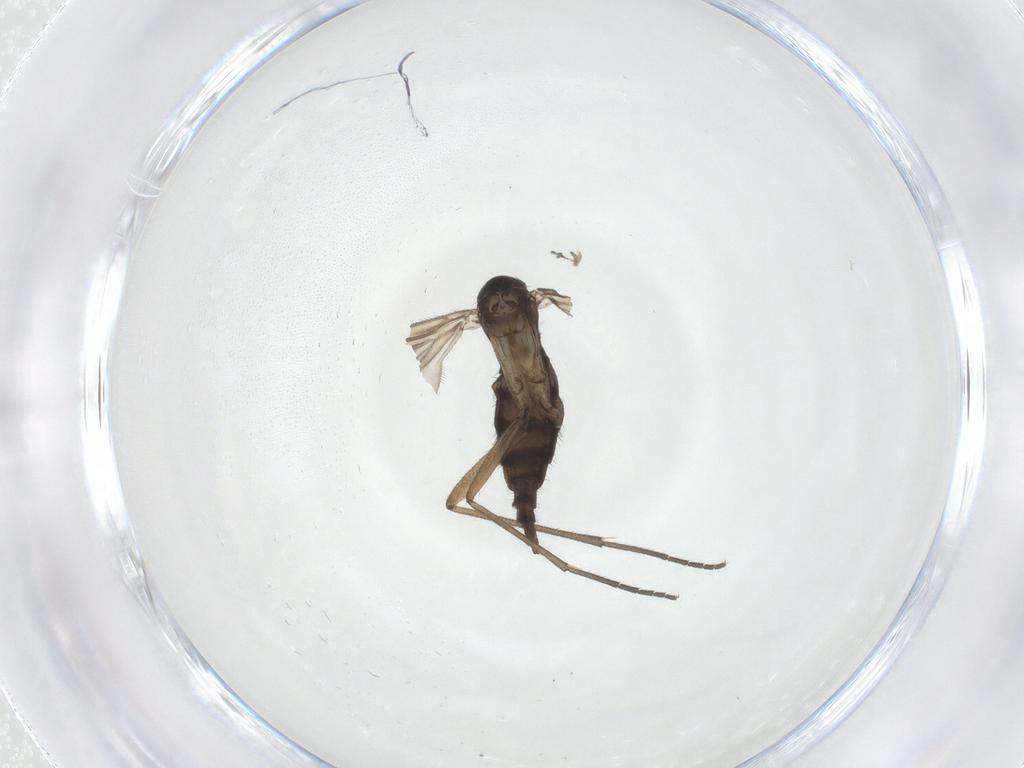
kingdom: Animalia
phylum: Arthropoda
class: Insecta
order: Diptera
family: Sciaridae
